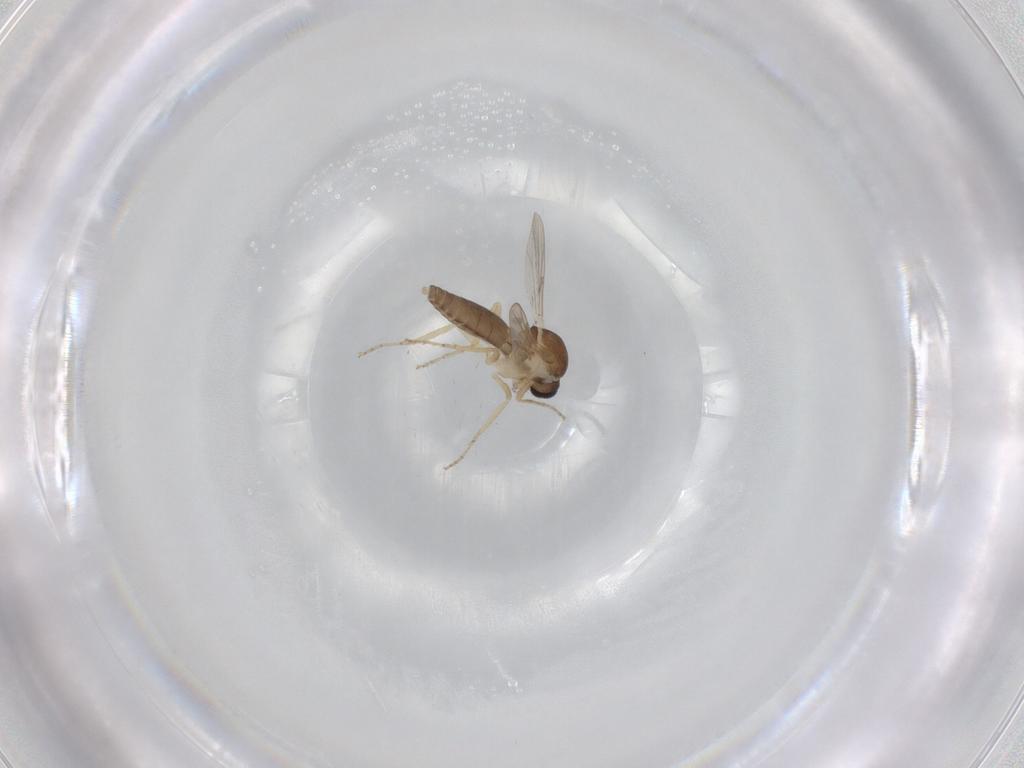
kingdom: Animalia
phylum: Arthropoda
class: Insecta
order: Diptera
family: Ceratopogonidae
